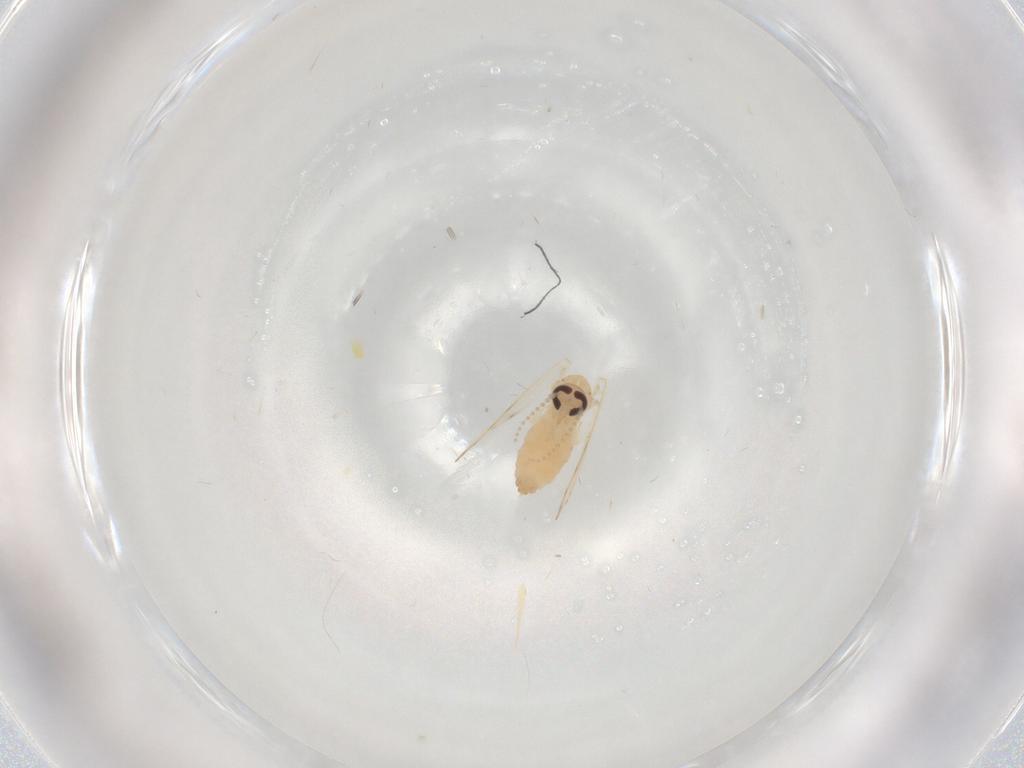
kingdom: Animalia
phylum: Arthropoda
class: Insecta
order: Diptera
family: Psychodidae
